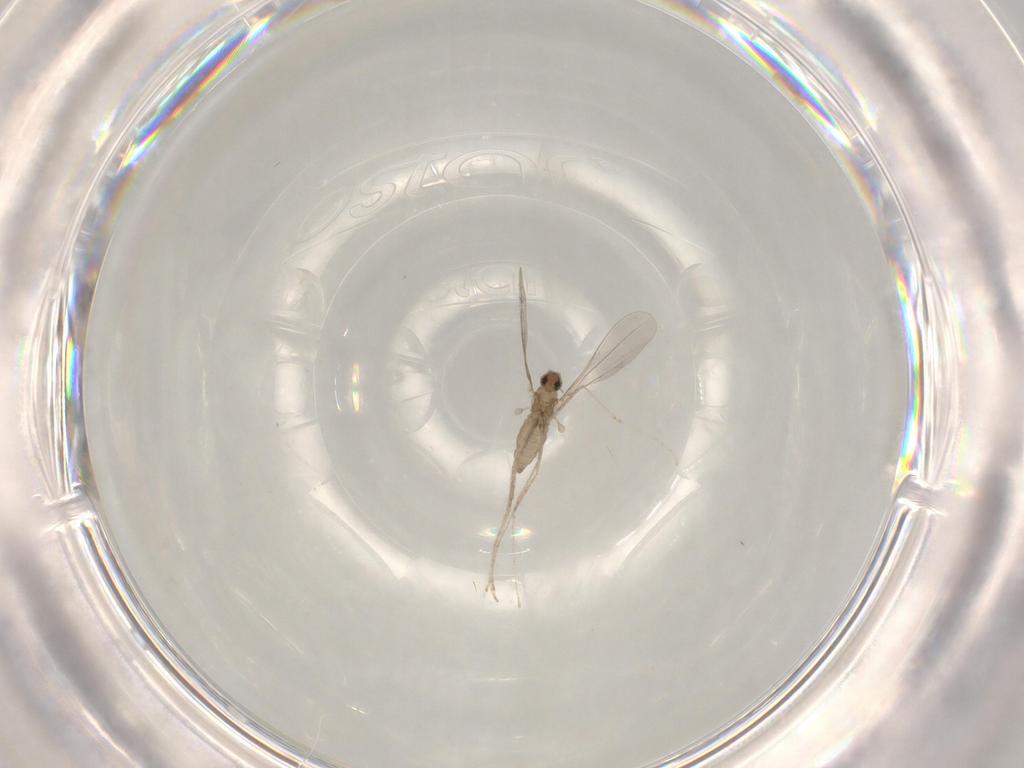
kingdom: Animalia
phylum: Arthropoda
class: Insecta
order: Diptera
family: Cecidomyiidae
